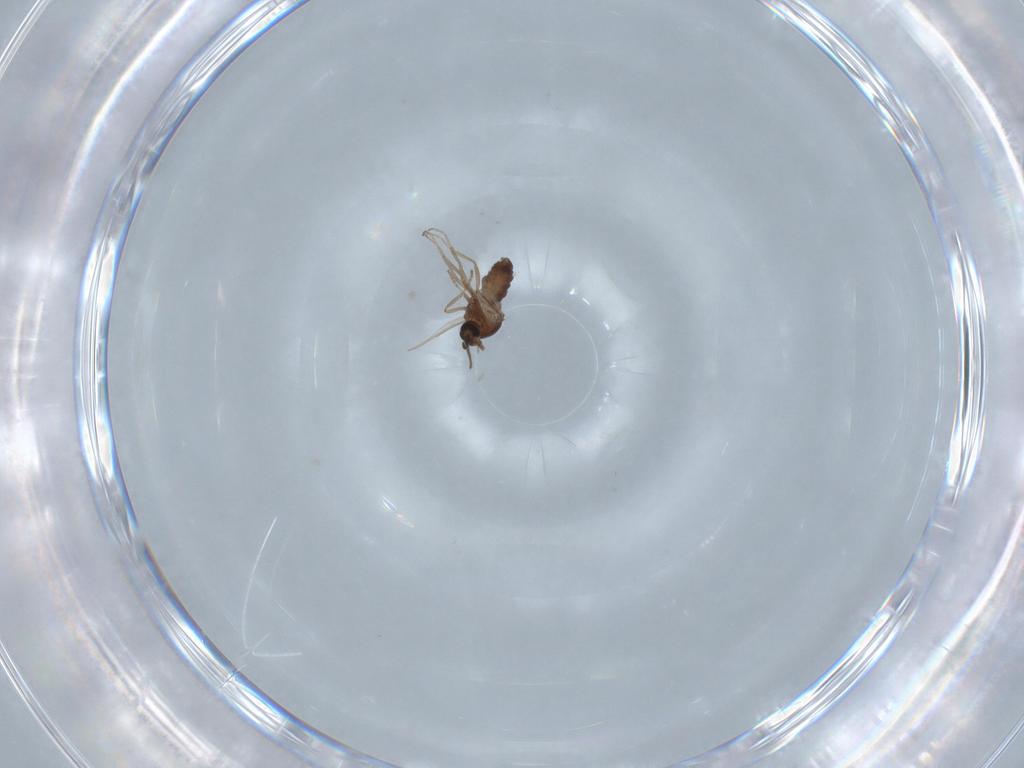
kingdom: Animalia
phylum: Arthropoda
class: Insecta
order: Diptera
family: Ceratopogonidae
